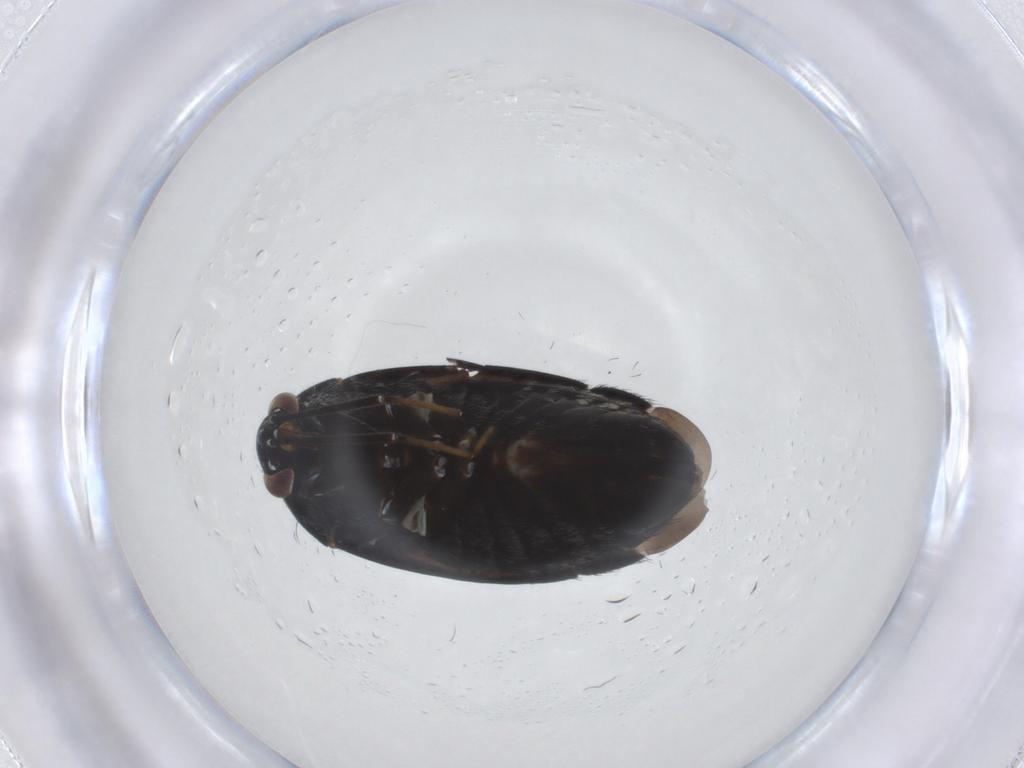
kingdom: Animalia
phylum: Arthropoda
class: Insecta
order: Hemiptera
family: Miridae
